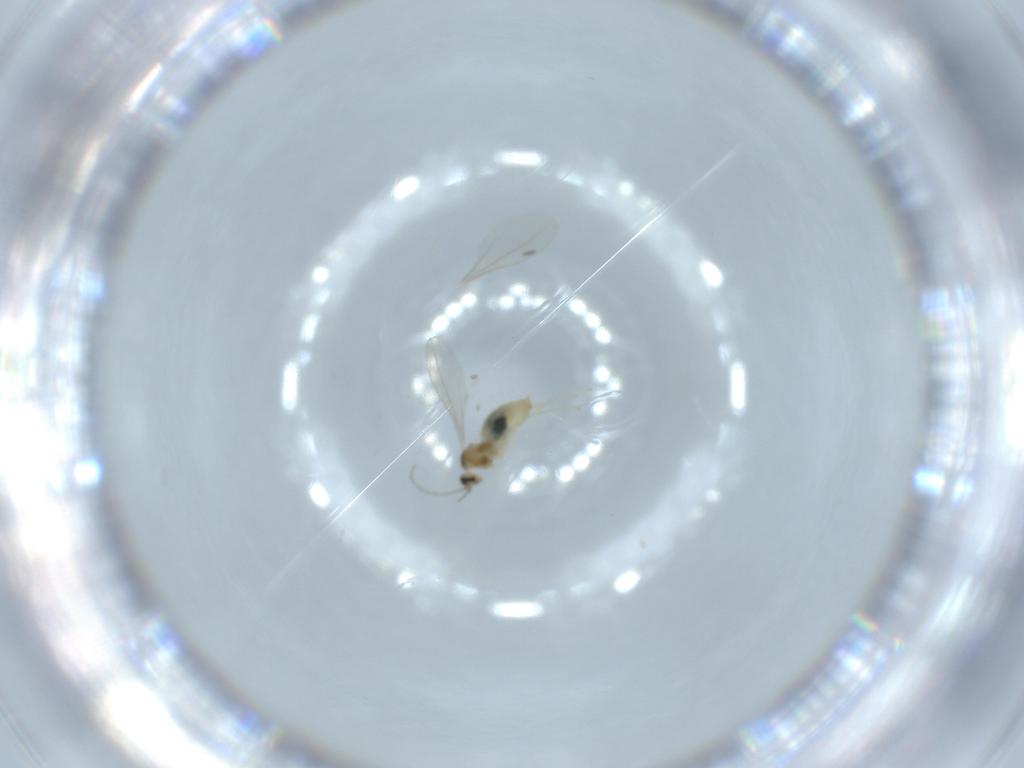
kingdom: Animalia
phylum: Arthropoda
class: Insecta
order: Diptera
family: Cecidomyiidae
